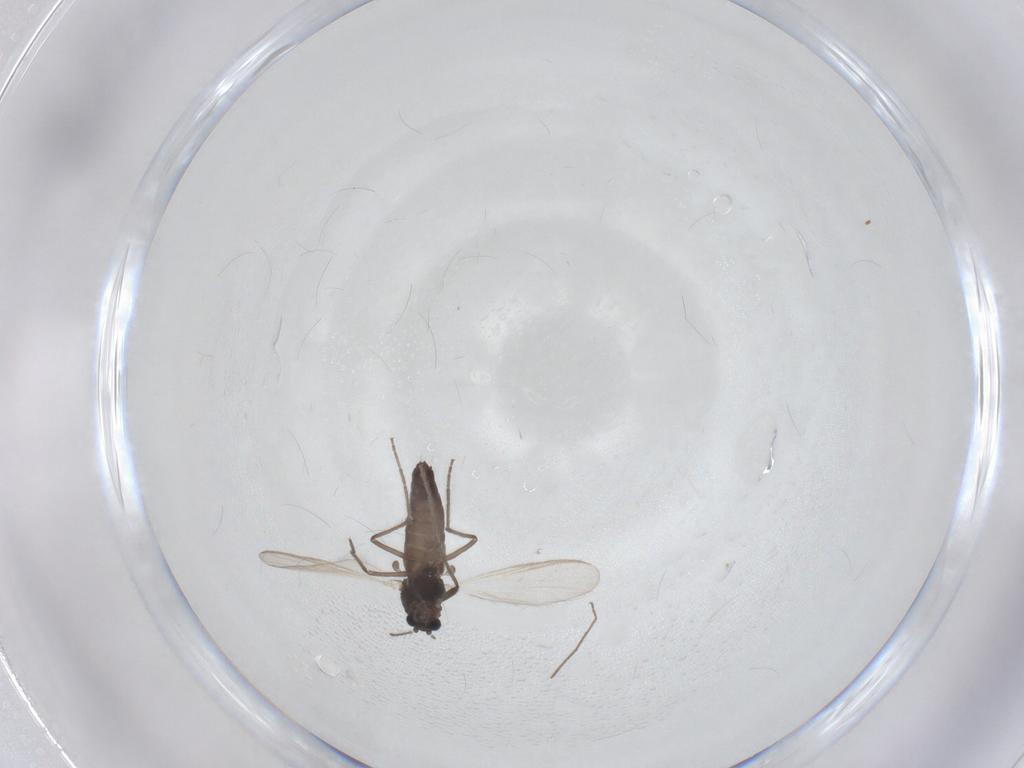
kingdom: Animalia
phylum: Arthropoda
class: Insecta
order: Diptera
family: Chironomidae
